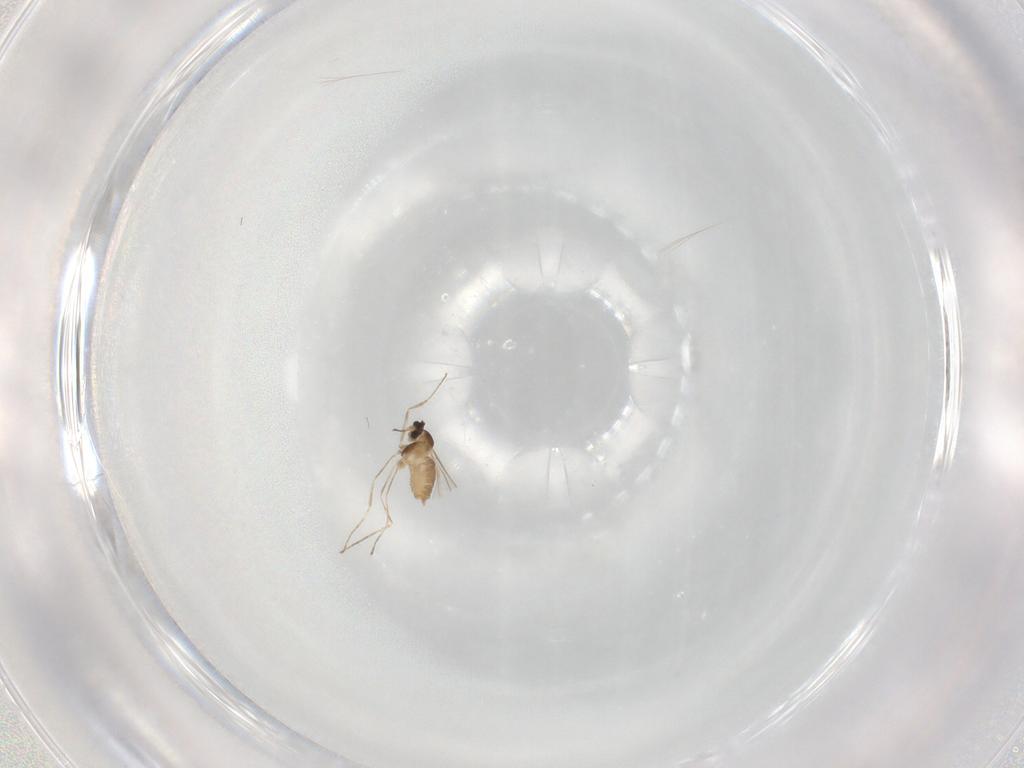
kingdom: Animalia
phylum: Arthropoda
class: Insecta
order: Diptera
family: Cecidomyiidae
